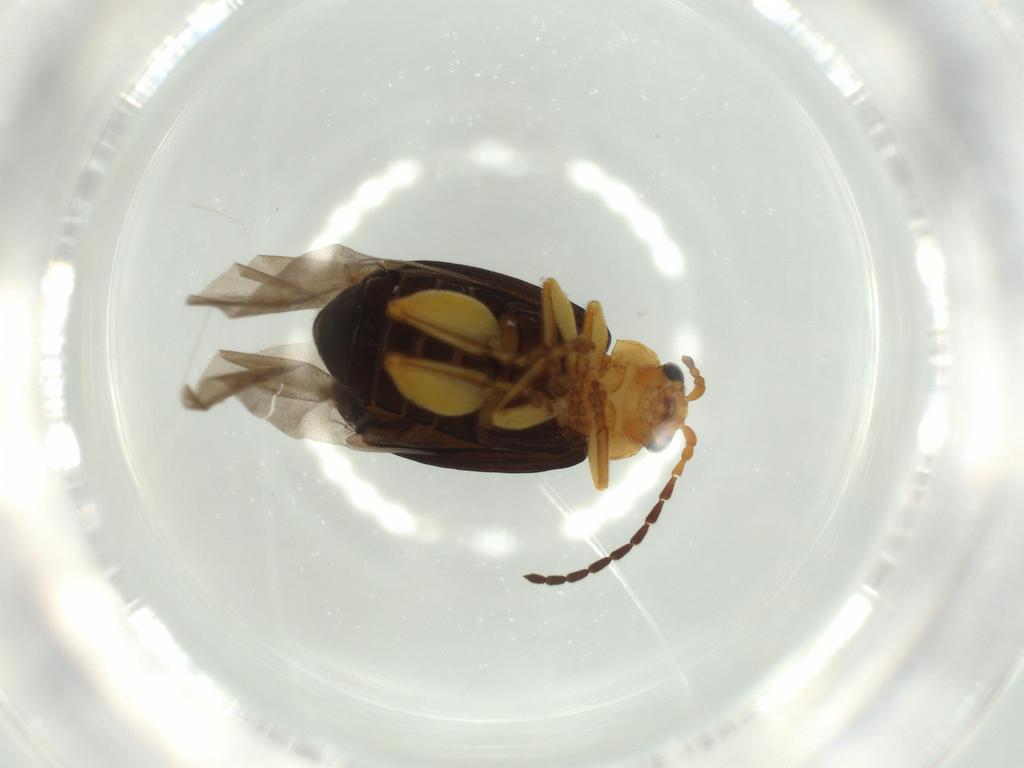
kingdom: Animalia
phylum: Arthropoda
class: Insecta
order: Coleoptera
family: Chrysomelidae
